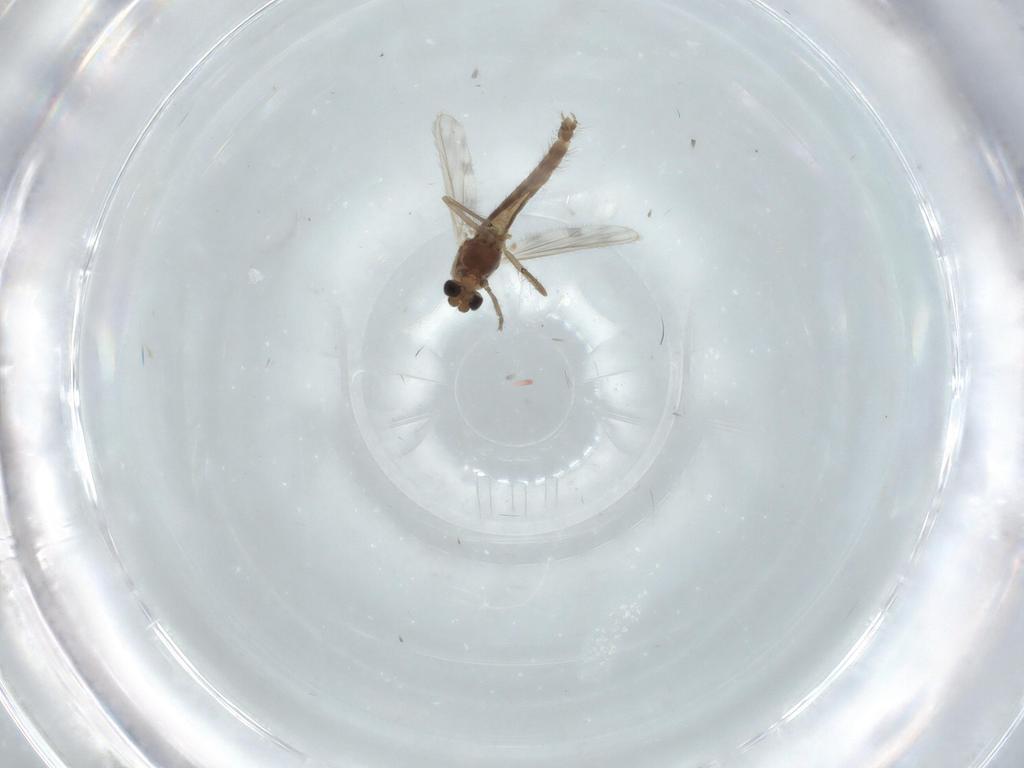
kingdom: Animalia
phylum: Arthropoda
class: Insecta
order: Diptera
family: Chironomidae
